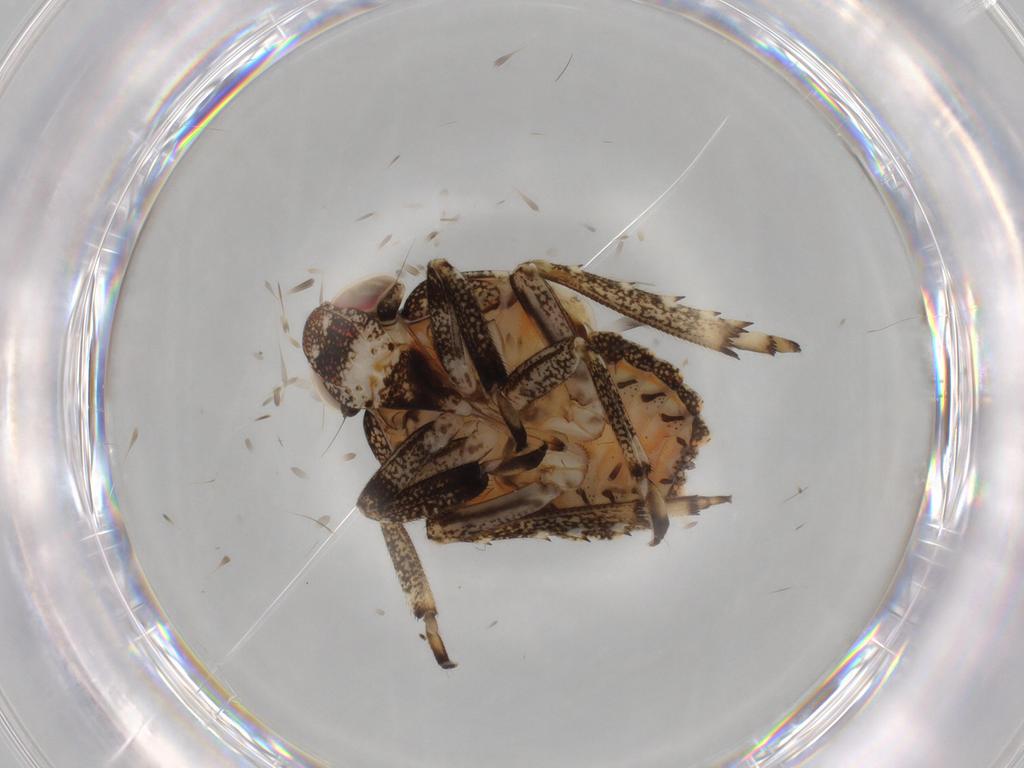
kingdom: Animalia
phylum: Arthropoda
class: Insecta
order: Hemiptera
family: Issidae
